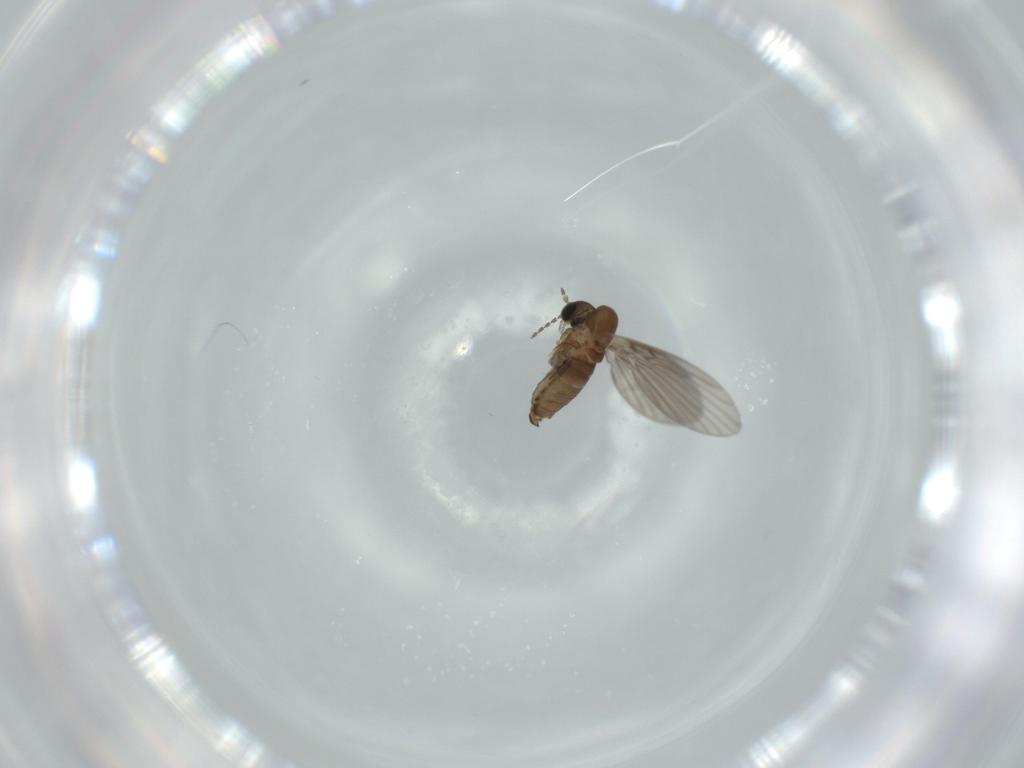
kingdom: Animalia
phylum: Arthropoda
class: Insecta
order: Diptera
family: Psychodidae
